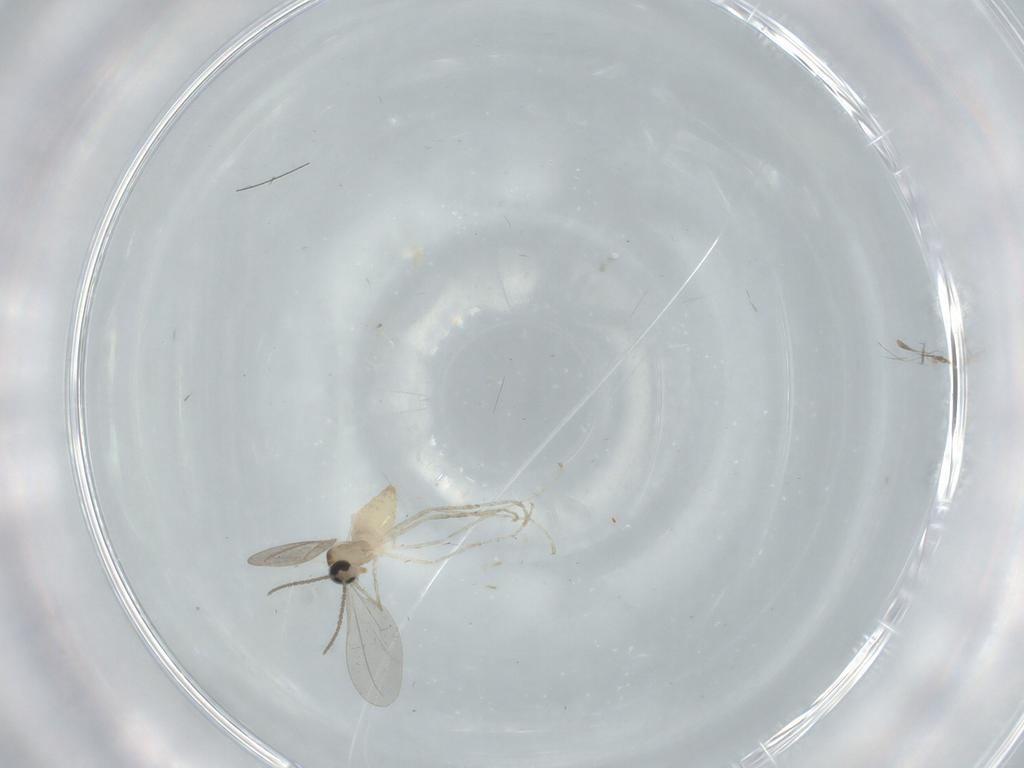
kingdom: Animalia
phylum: Arthropoda
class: Insecta
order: Diptera
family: Cecidomyiidae
